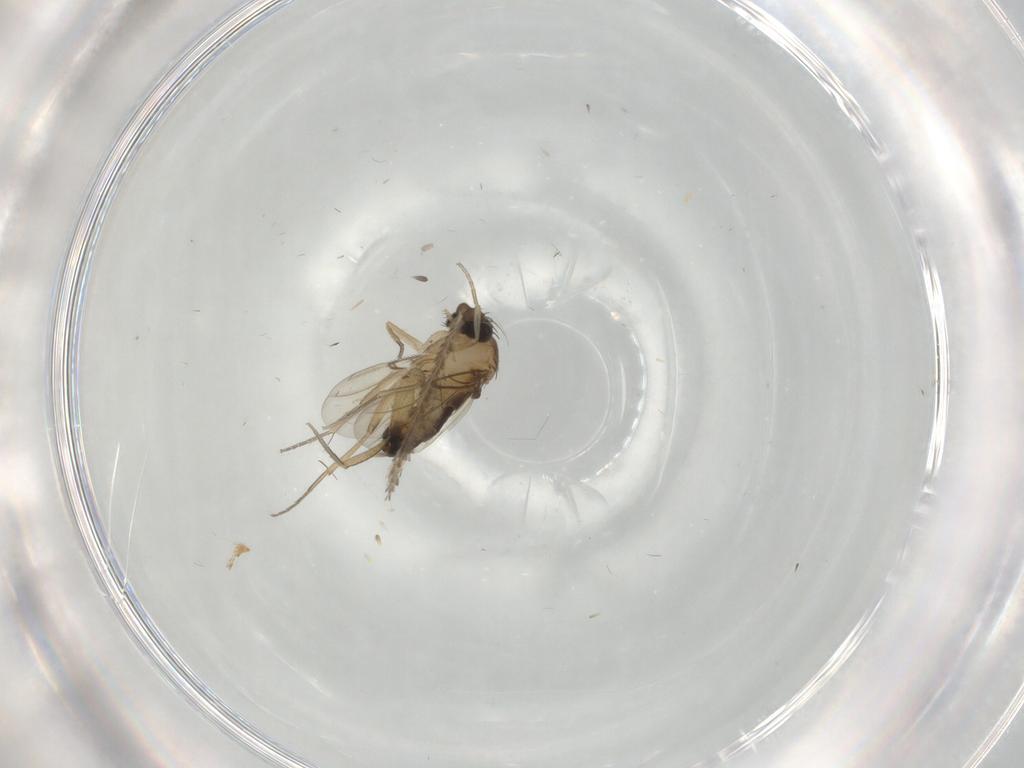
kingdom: Animalia
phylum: Arthropoda
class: Insecta
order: Diptera
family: Phoridae
